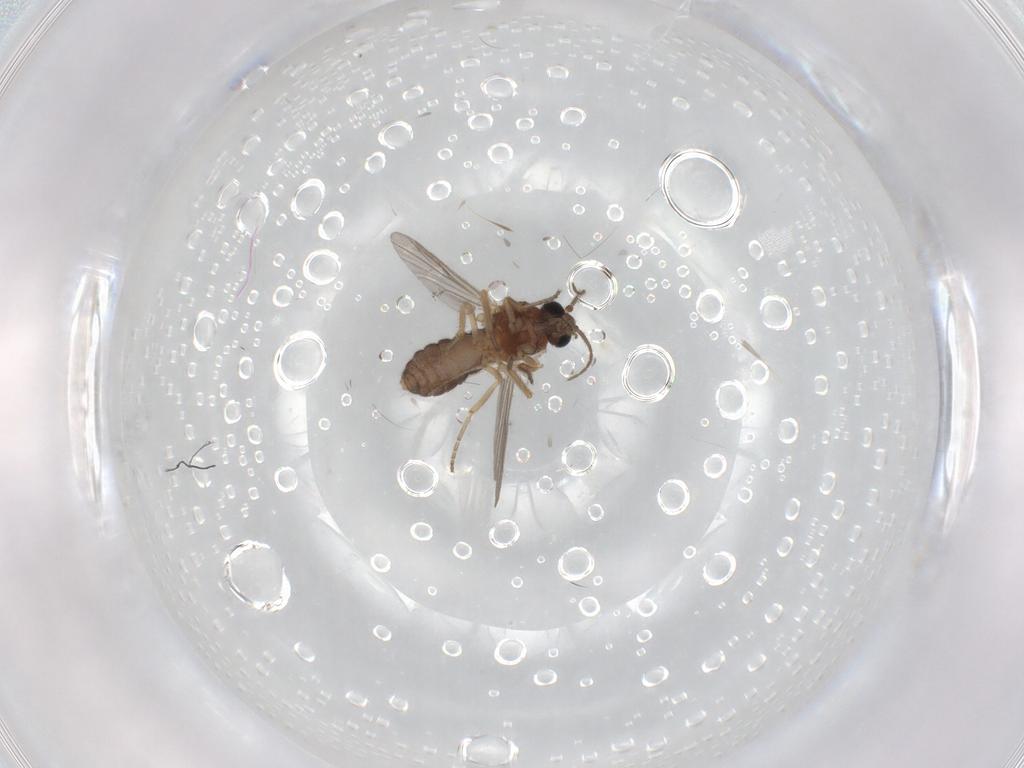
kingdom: Animalia
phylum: Arthropoda
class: Insecta
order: Diptera
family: Ceratopogonidae
